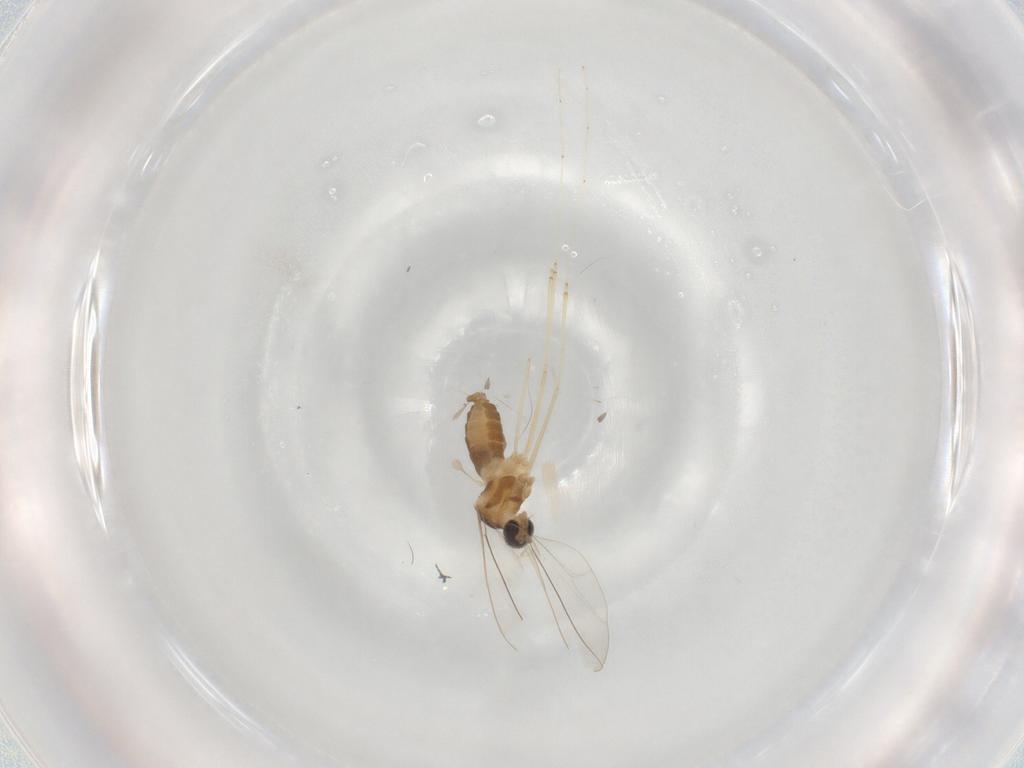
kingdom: Animalia
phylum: Arthropoda
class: Insecta
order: Diptera
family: Cecidomyiidae
